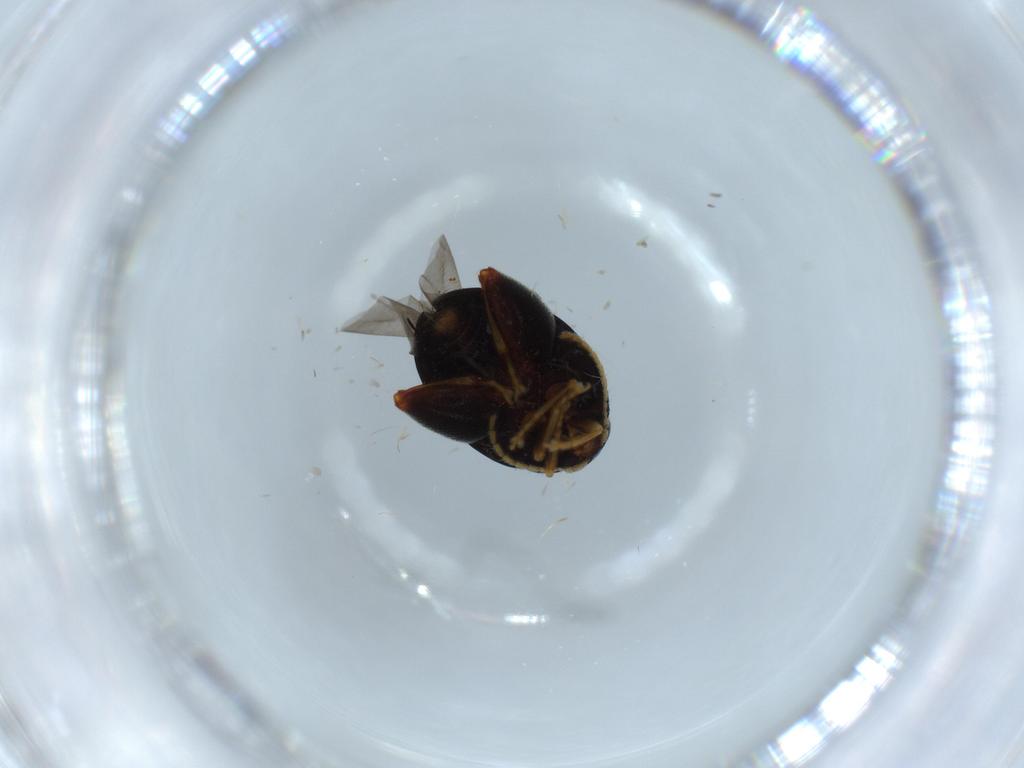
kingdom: Animalia
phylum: Arthropoda
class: Insecta
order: Coleoptera
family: Chrysomelidae
